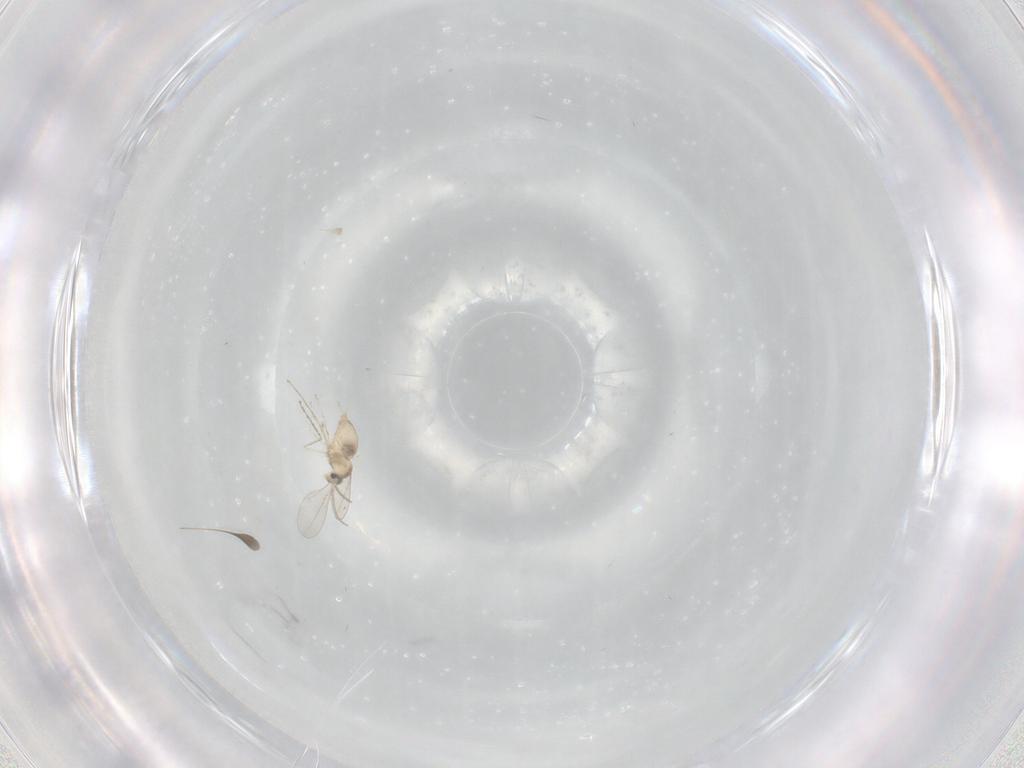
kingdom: Animalia
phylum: Arthropoda
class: Insecta
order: Diptera
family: Cecidomyiidae
